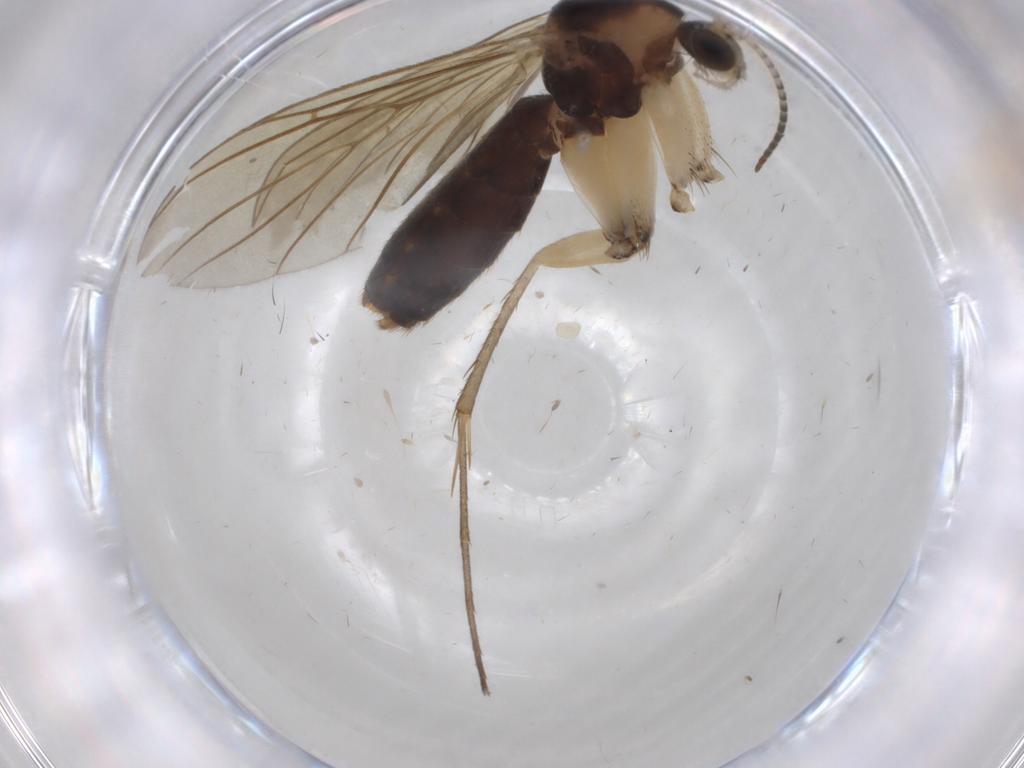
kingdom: Animalia
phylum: Arthropoda
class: Insecta
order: Diptera
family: Mycetophilidae
